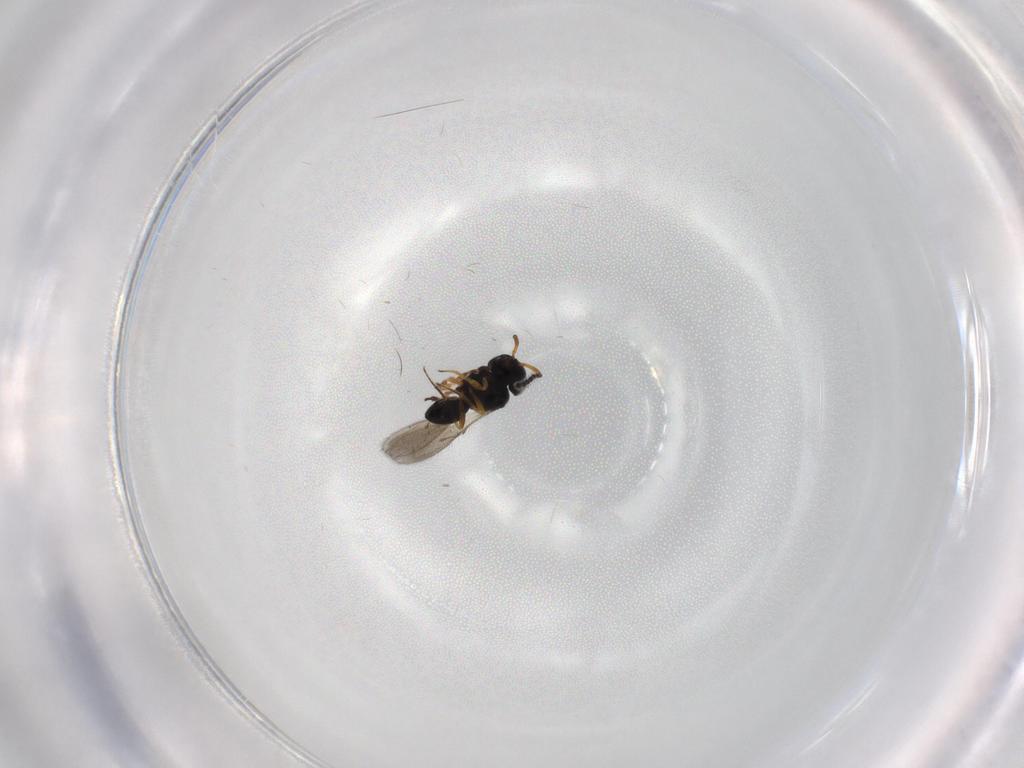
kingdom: Animalia
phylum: Arthropoda
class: Insecta
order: Hymenoptera
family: Scelionidae
